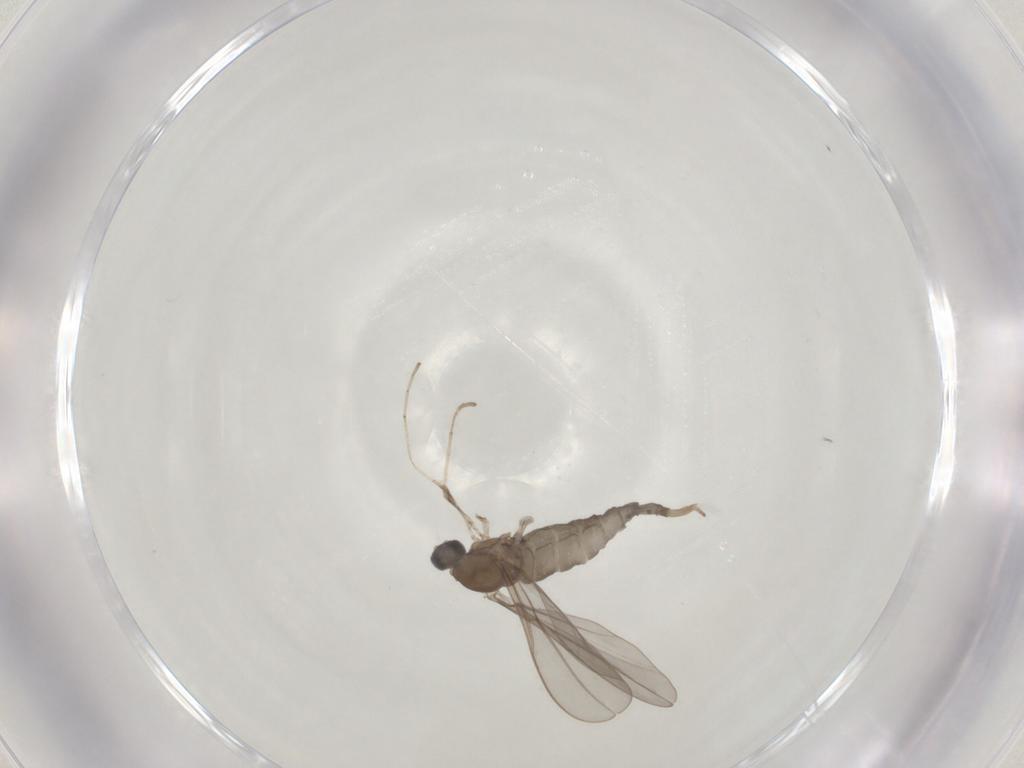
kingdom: Animalia
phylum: Arthropoda
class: Insecta
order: Diptera
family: Cecidomyiidae
